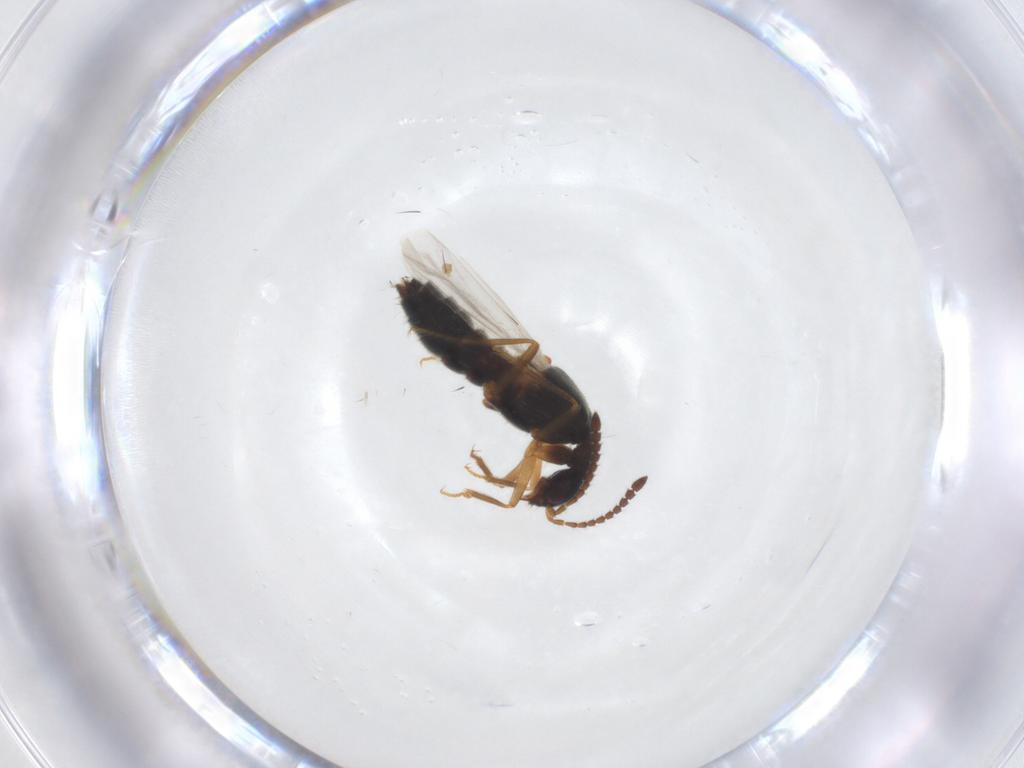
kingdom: Animalia
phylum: Arthropoda
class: Insecta
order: Coleoptera
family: Staphylinidae
